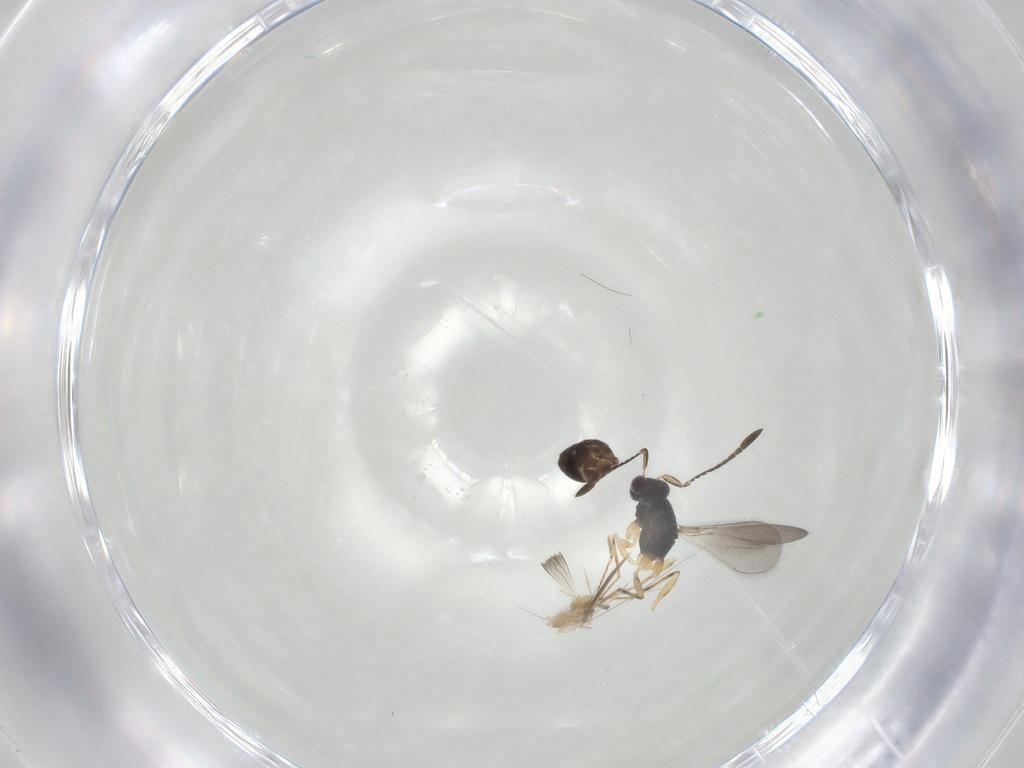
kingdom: Animalia
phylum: Arthropoda
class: Insecta
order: Hymenoptera
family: Mymaridae
